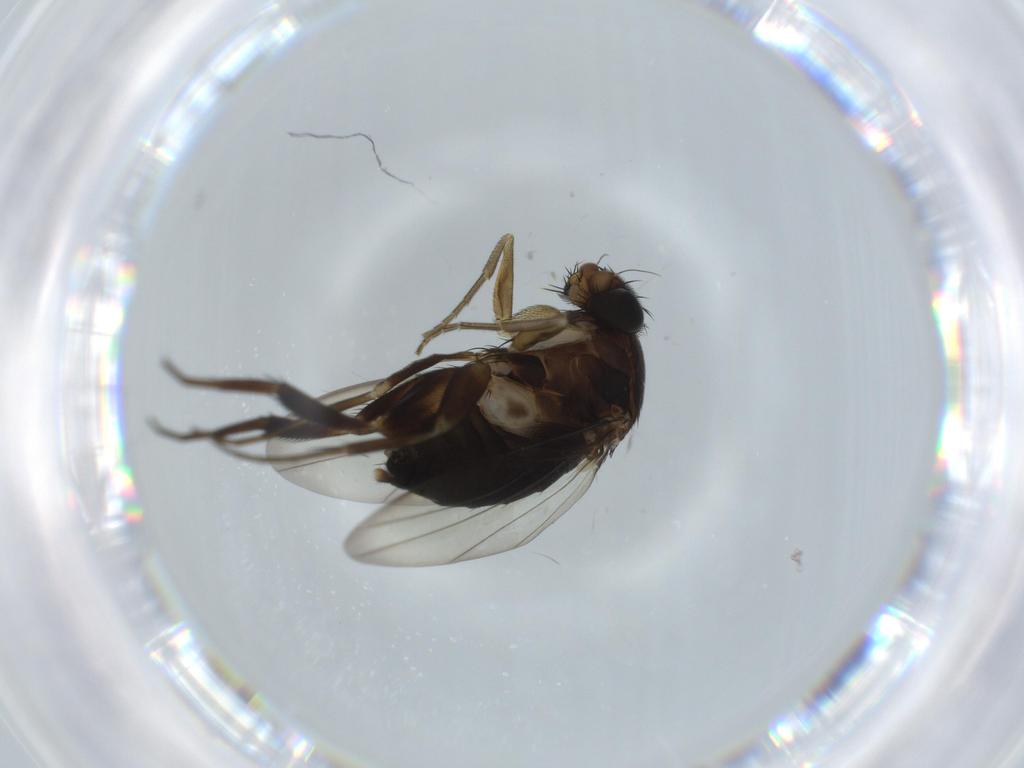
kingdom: Animalia
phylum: Arthropoda
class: Insecta
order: Diptera
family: Phoridae
